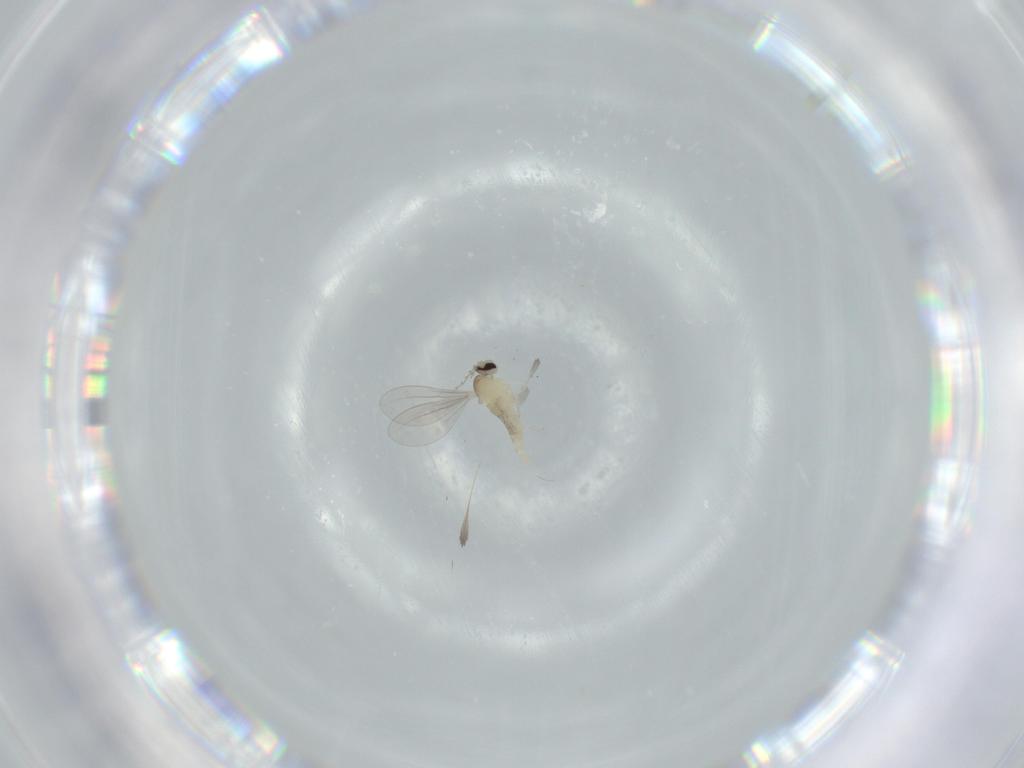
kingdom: Animalia
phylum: Arthropoda
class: Insecta
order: Diptera
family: Cecidomyiidae
